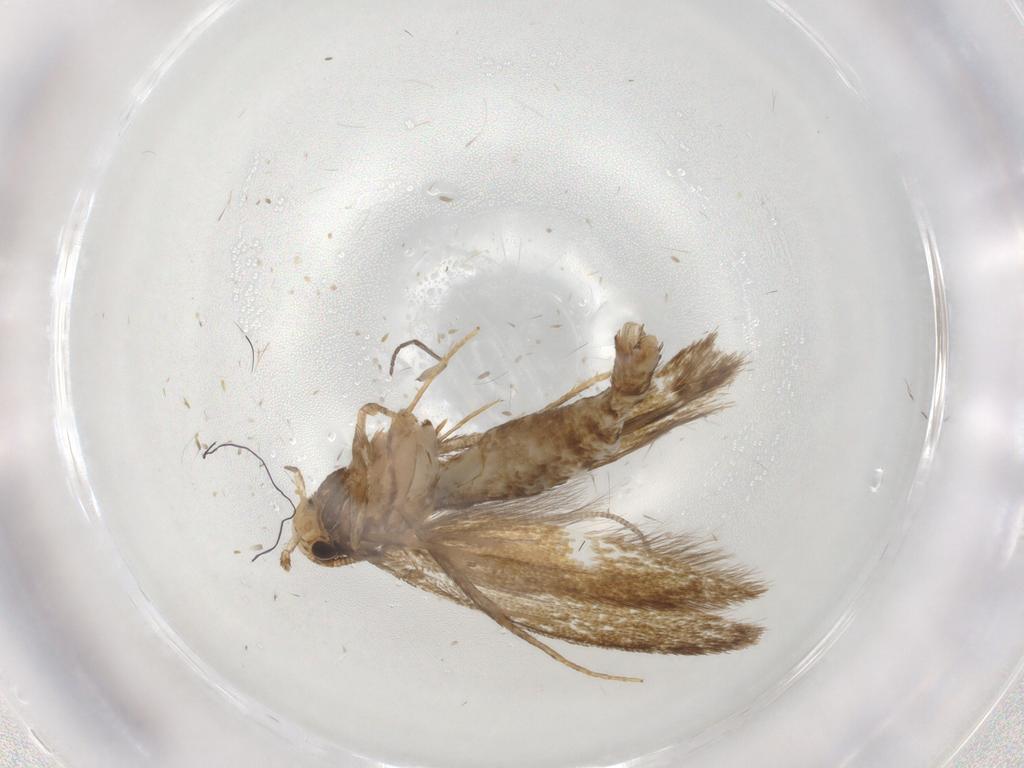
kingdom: Animalia
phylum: Arthropoda
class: Insecta
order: Lepidoptera
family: Tineidae
